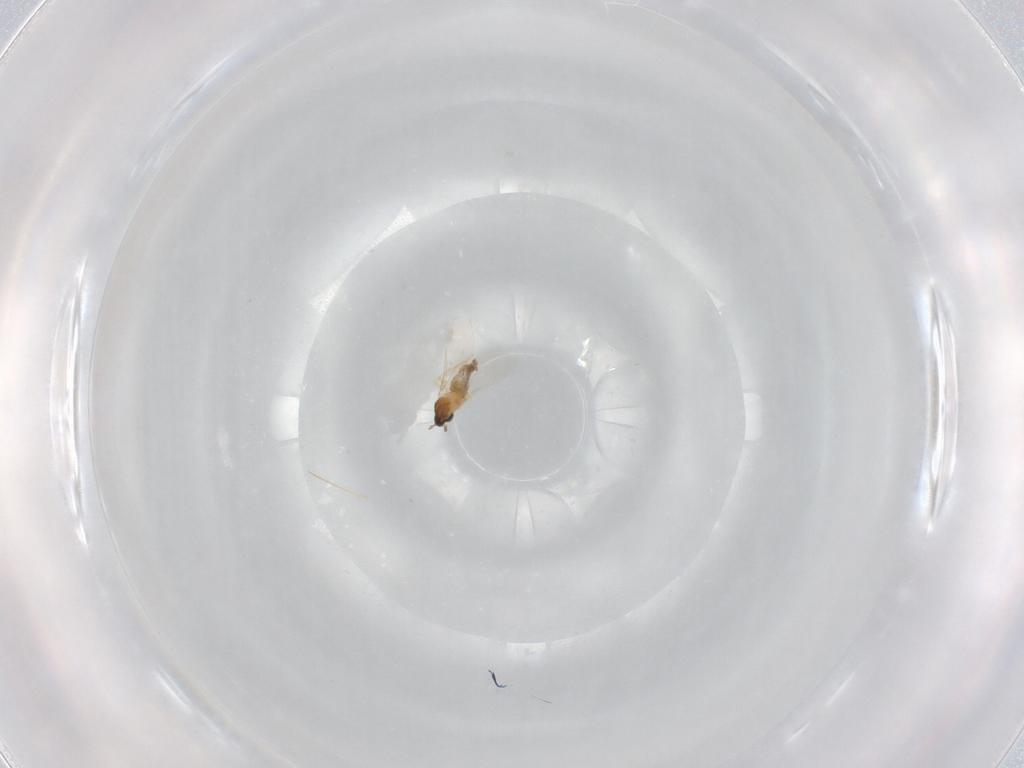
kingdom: Animalia
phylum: Arthropoda
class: Insecta
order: Diptera
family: Cecidomyiidae
